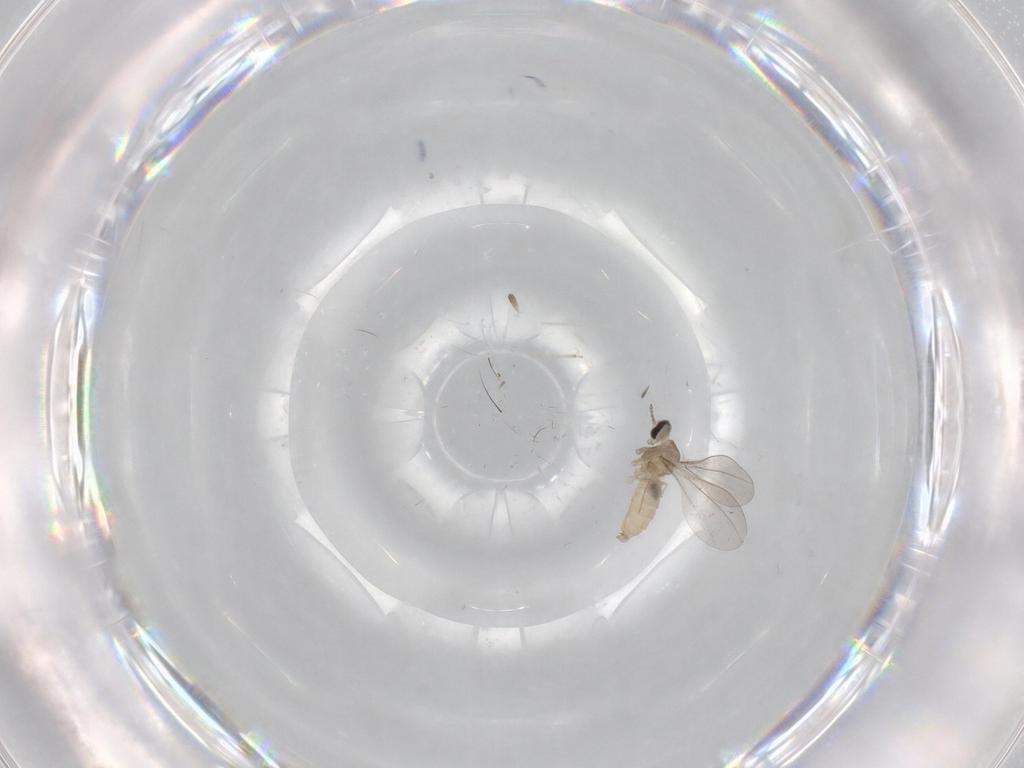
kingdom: Animalia
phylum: Arthropoda
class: Insecta
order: Diptera
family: Cecidomyiidae
